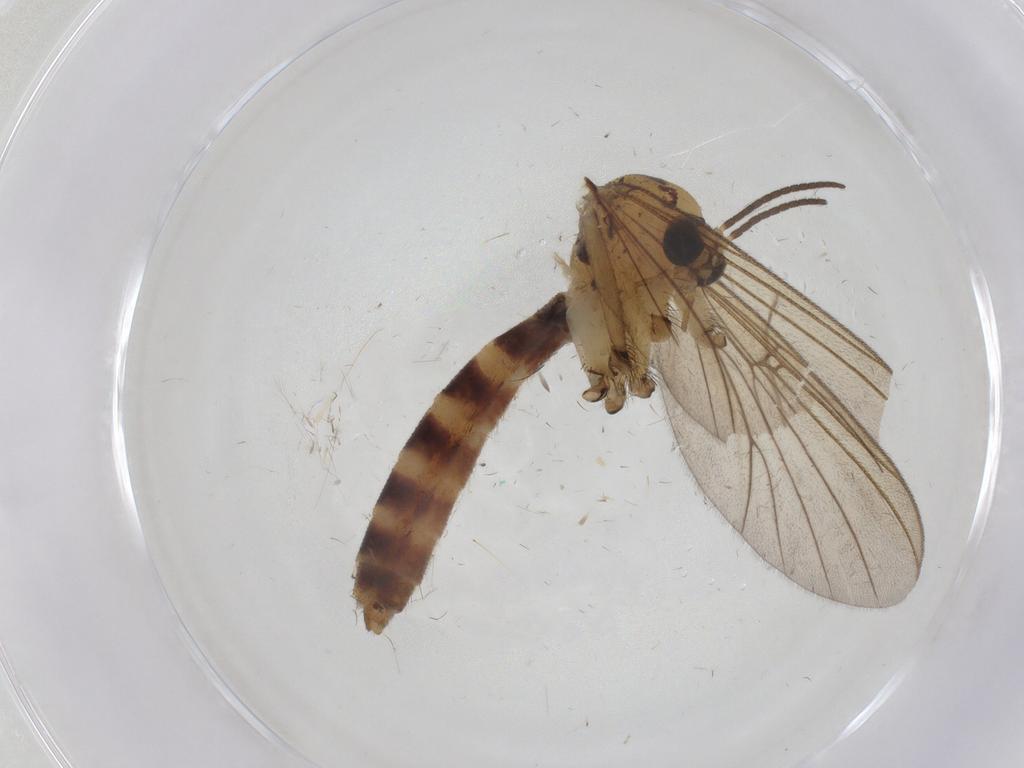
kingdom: Animalia
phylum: Arthropoda
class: Insecta
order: Diptera
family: Mycetophilidae
